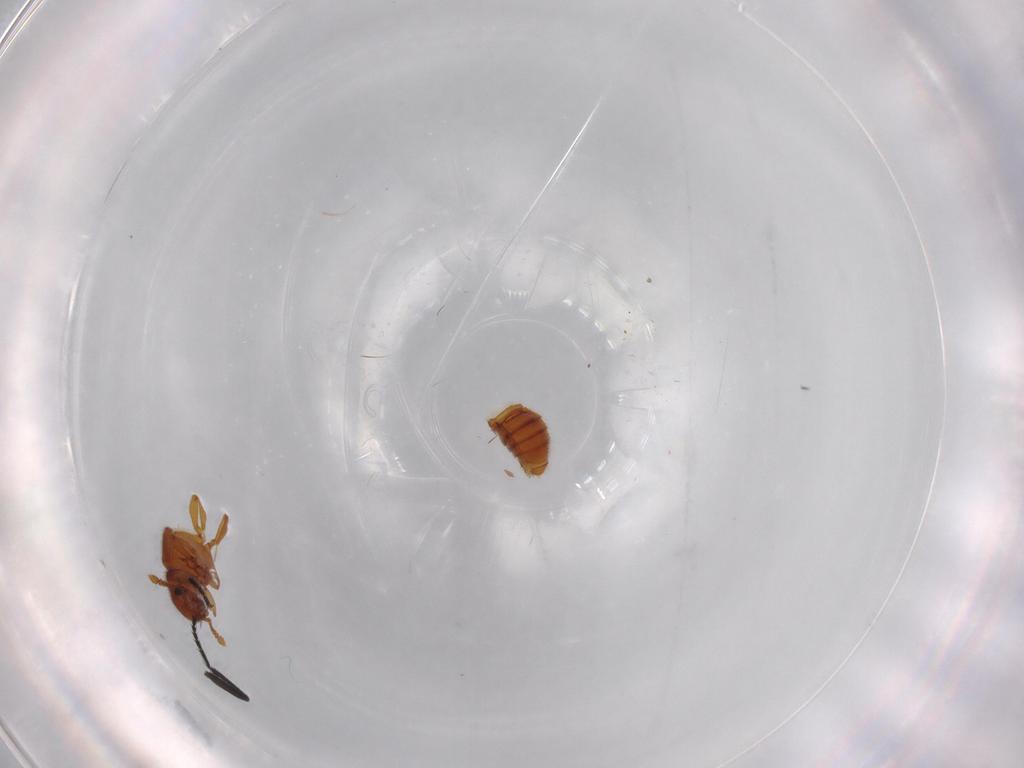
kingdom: Animalia
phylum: Arthropoda
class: Insecta
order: Coleoptera
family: Staphylinidae
